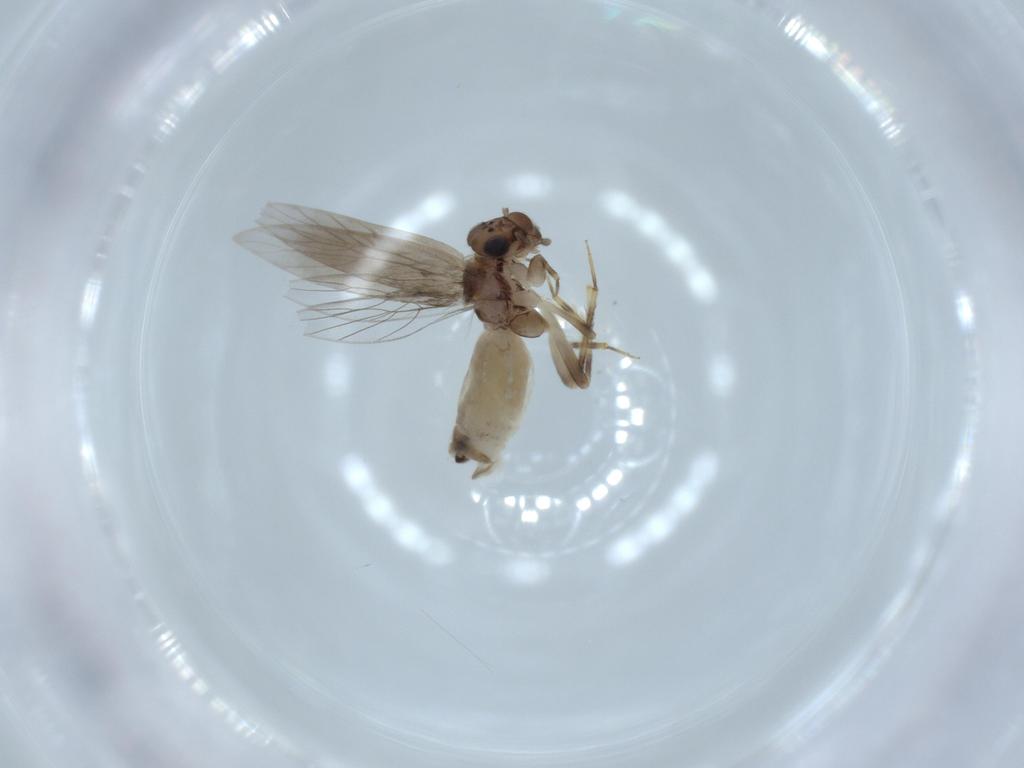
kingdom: Animalia
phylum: Arthropoda
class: Insecta
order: Psocodea
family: Lepidopsocidae
